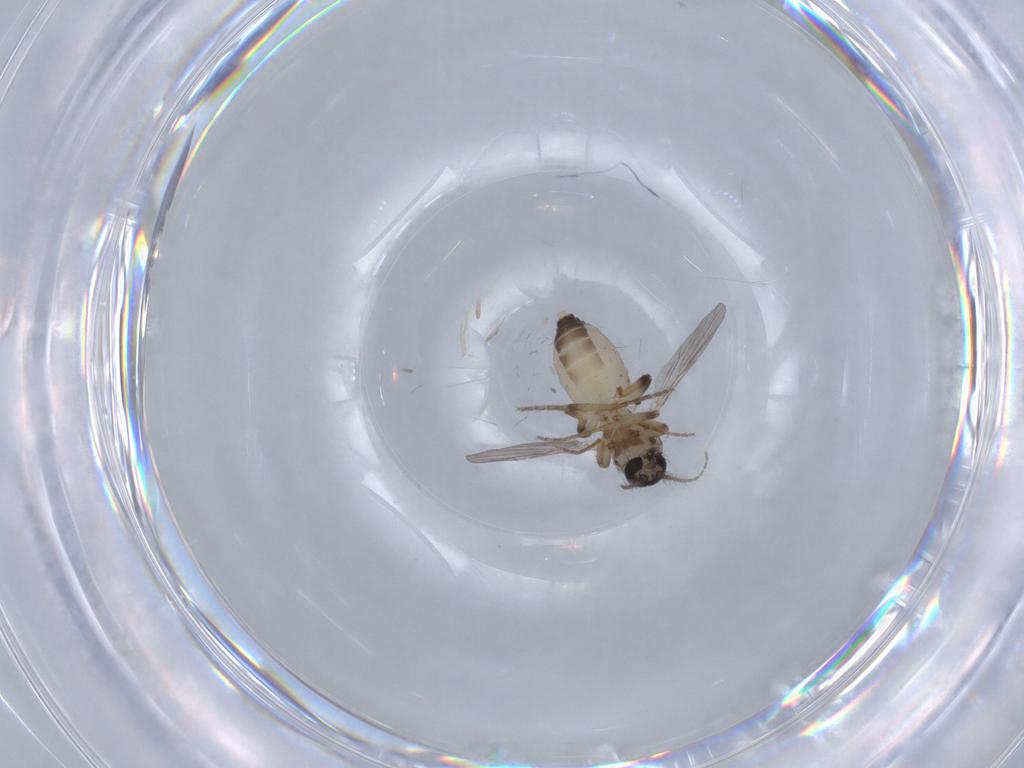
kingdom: Animalia
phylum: Arthropoda
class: Insecta
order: Diptera
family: Ceratopogonidae
